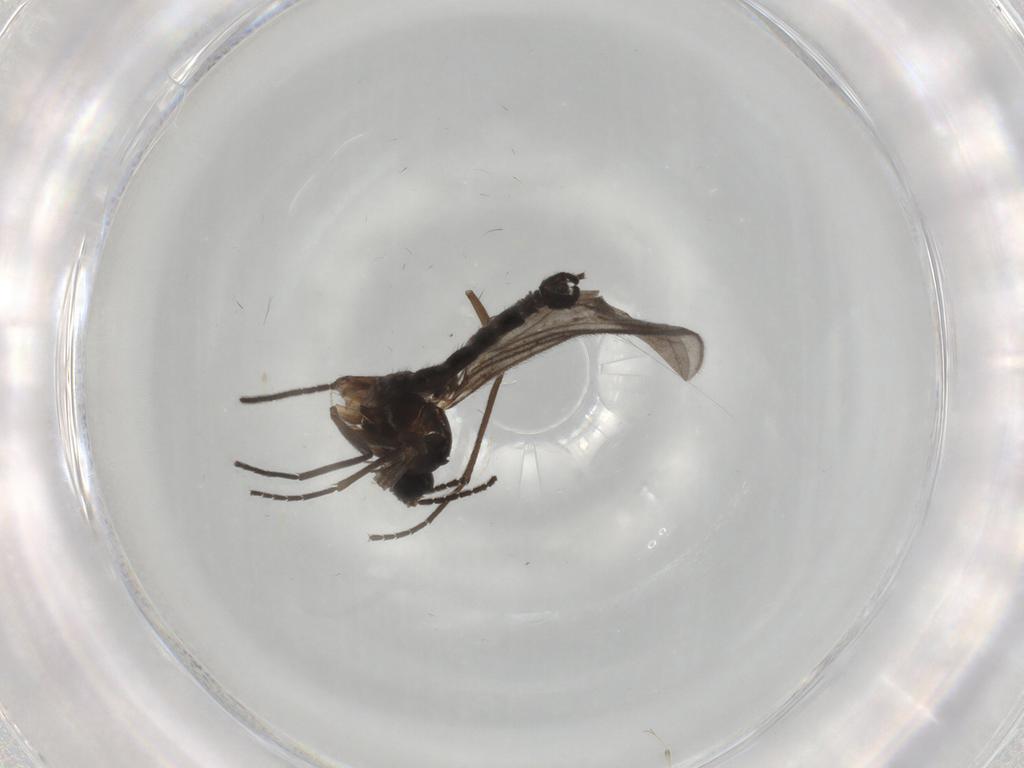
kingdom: Animalia
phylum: Arthropoda
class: Insecta
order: Diptera
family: Sciaridae
